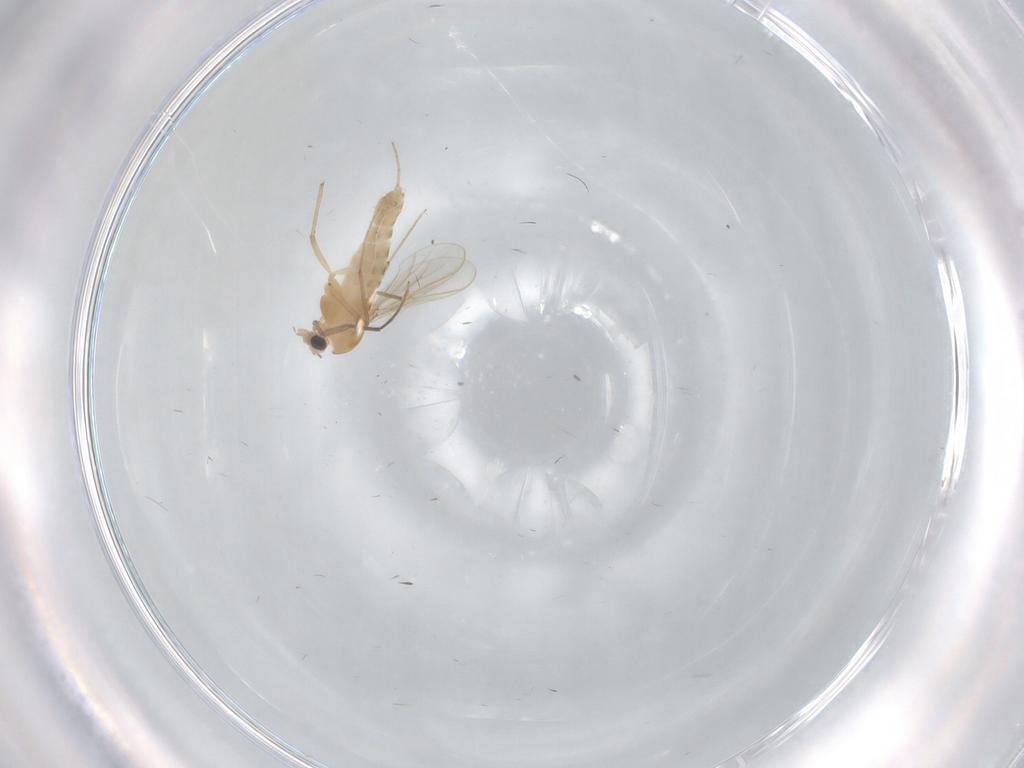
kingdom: Animalia
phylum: Arthropoda
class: Insecta
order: Diptera
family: Chironomidae
